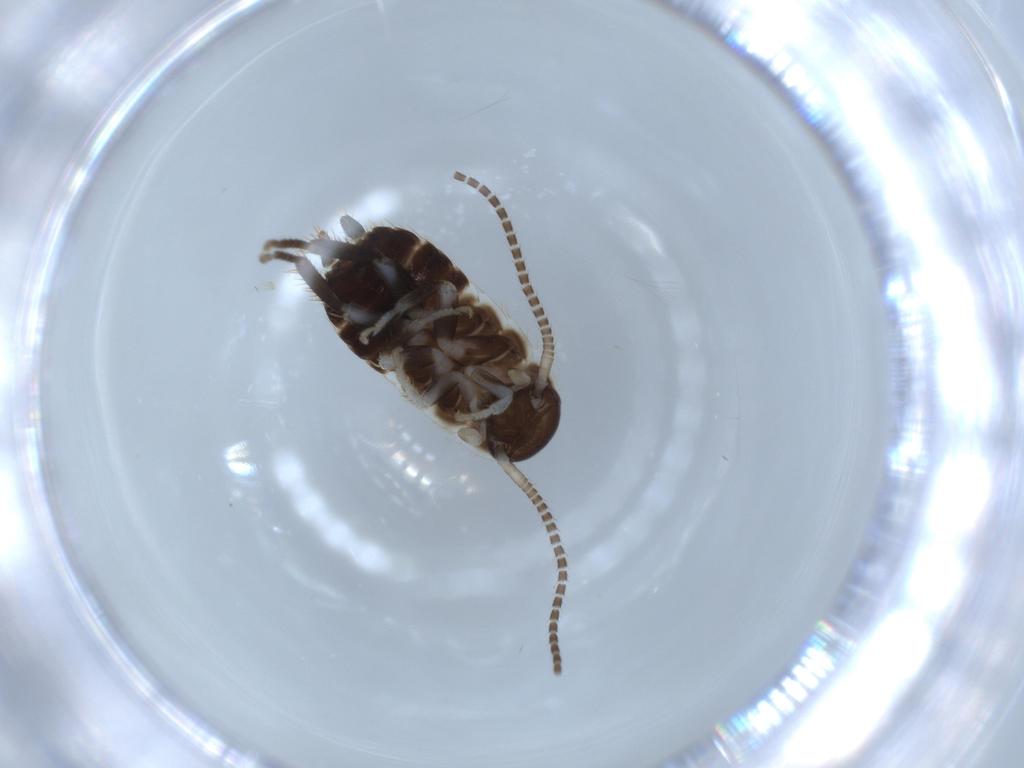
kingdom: Animalia
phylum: Arthropoda
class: Insecta
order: Blattodea
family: Ectobiidae
